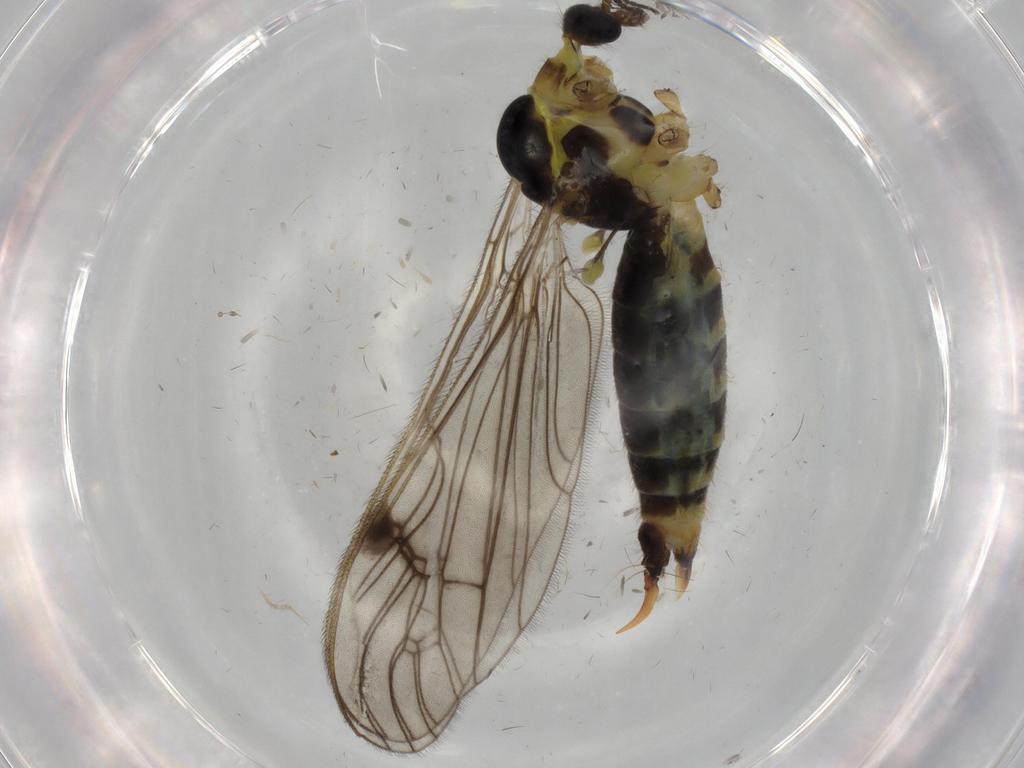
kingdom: Animalia
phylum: Arthropoda
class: Insecta
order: Diptera
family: Limoniidae
